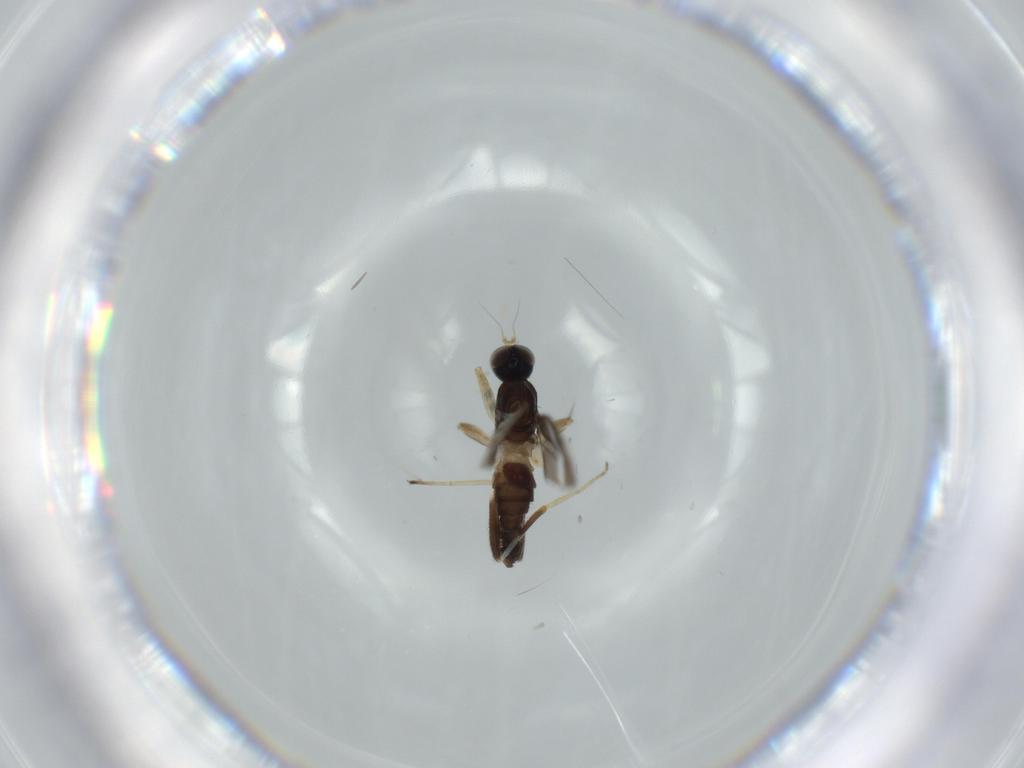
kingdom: Animalia
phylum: Arthropoda
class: Insecta
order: Diptera
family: Hybotidae
